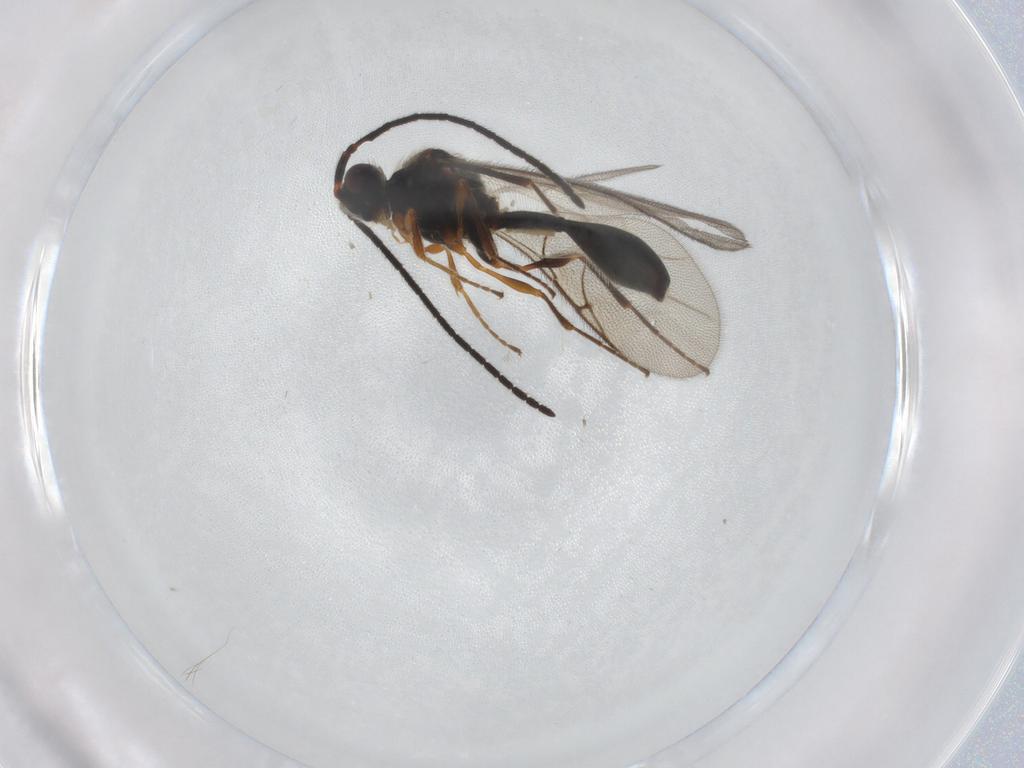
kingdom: Animalia
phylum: Arthropoda
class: Insecta
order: Hymenoptera
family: Diapriidae
